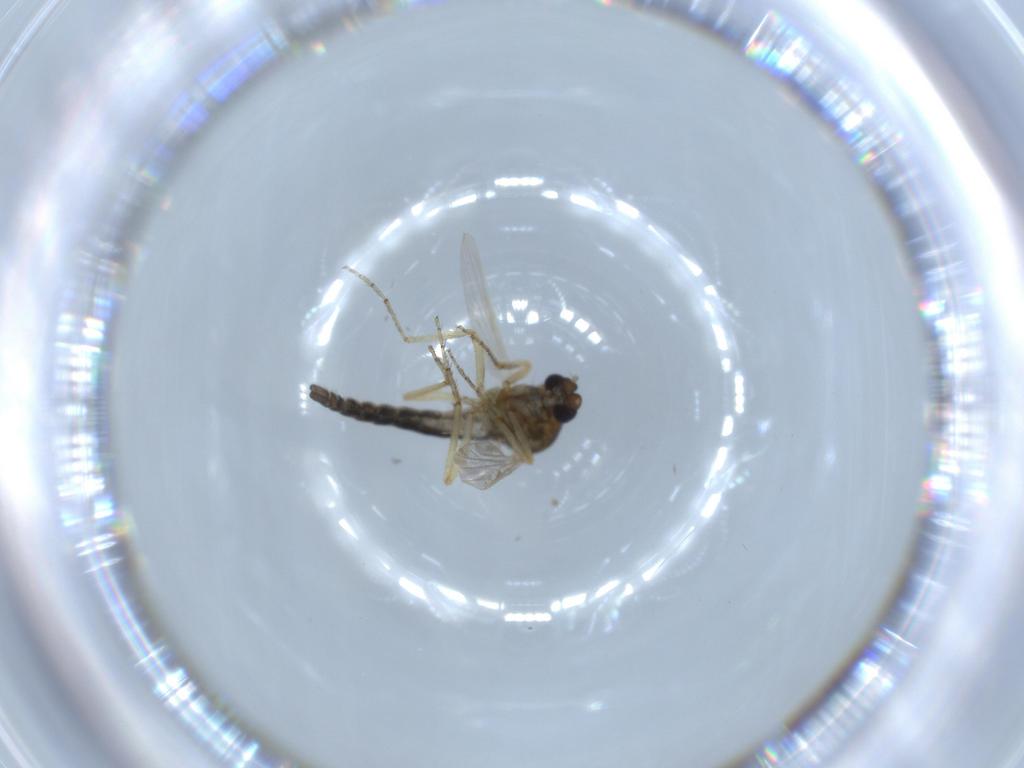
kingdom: Animalia
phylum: Arthropoda
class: Insecta
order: Diptera
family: Ceratopogonidae
